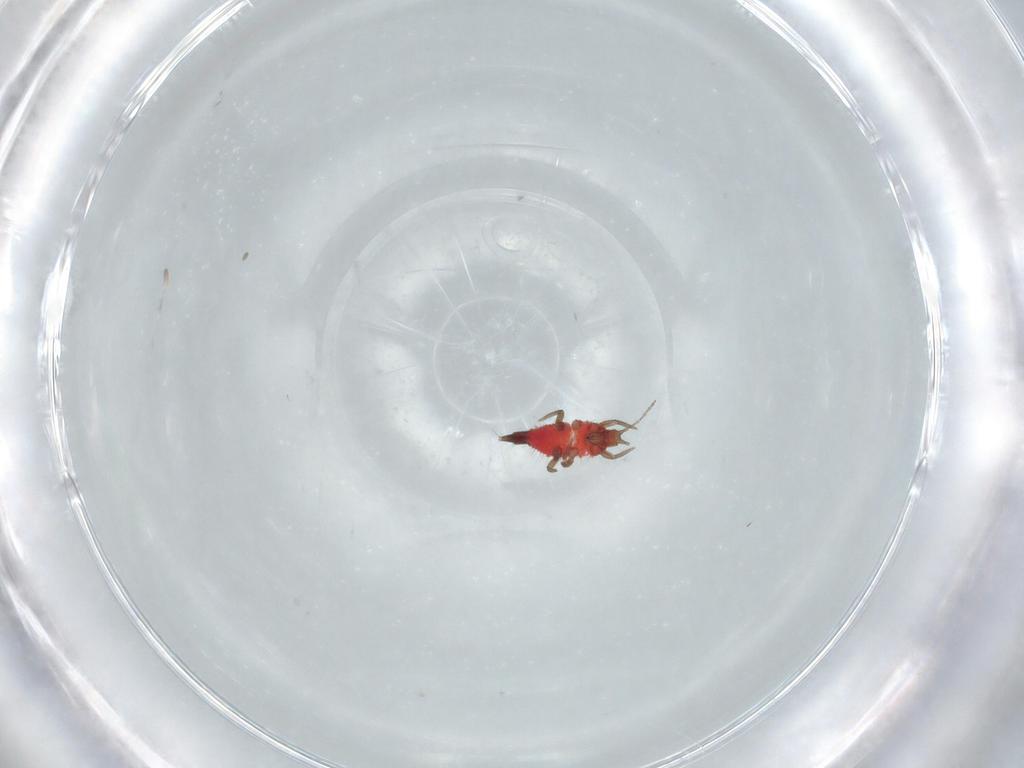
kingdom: Animalia
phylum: Arthropoda
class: Insecta
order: Thysanoptera
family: Phlaeothripidae
